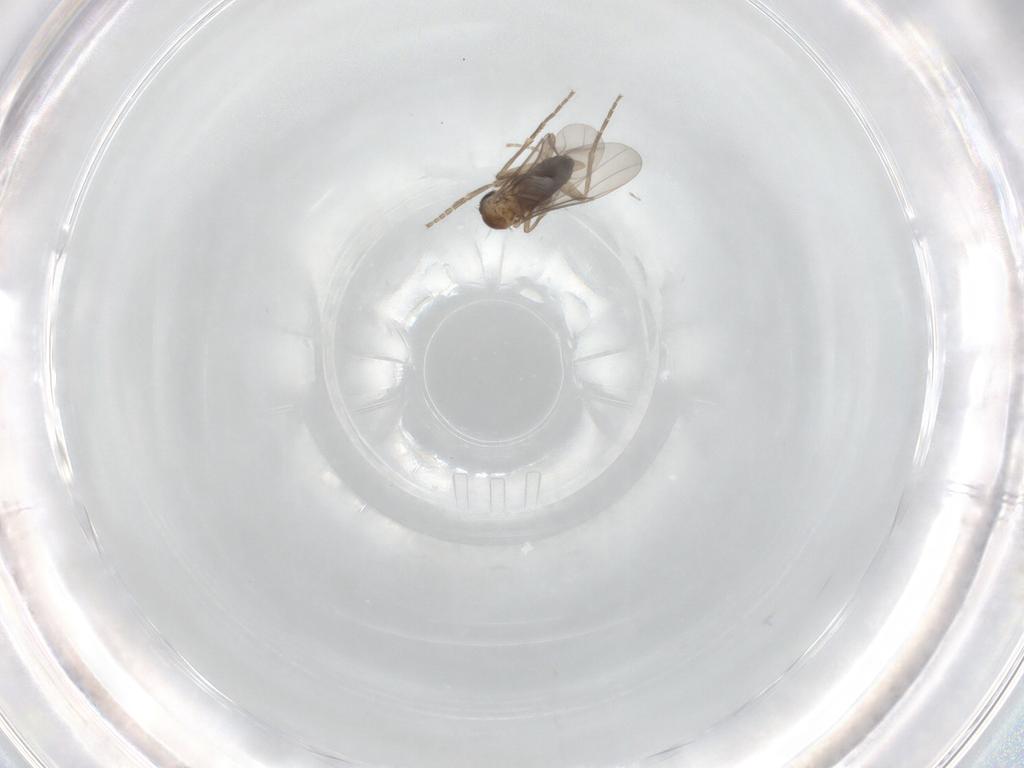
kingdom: Animalia
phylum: Arthropoda
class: Insecta
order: Diptera
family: Phoridae
